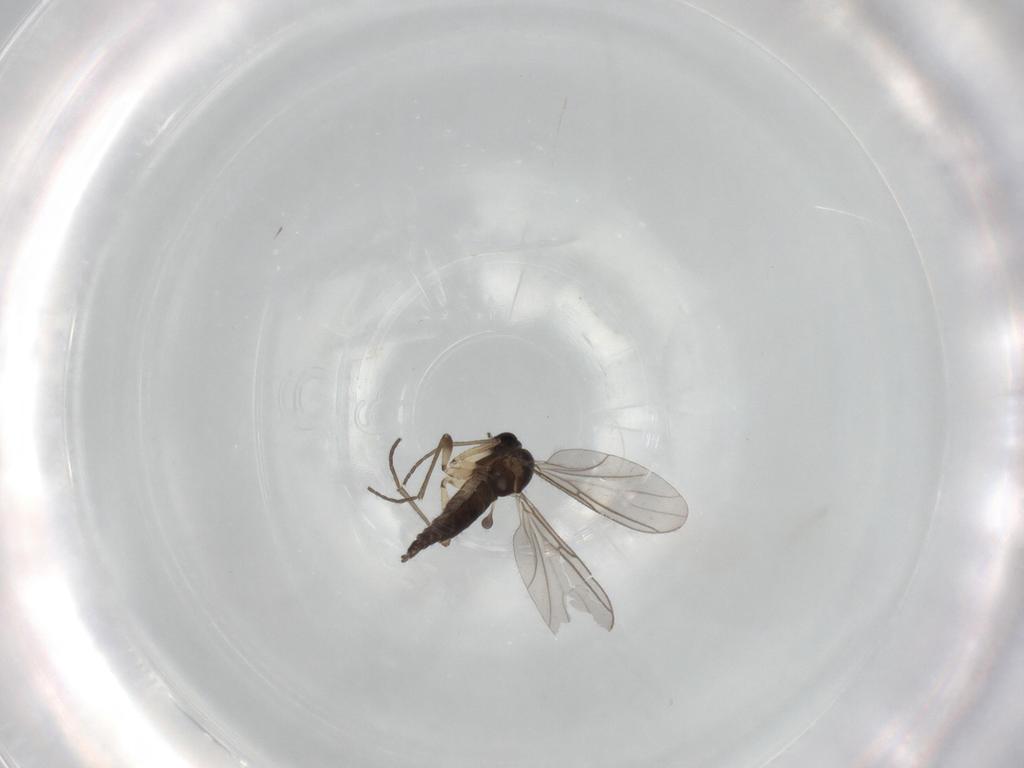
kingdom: Animalia
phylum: Arthropoda
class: Insecta
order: Diptera
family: Sciaridae
